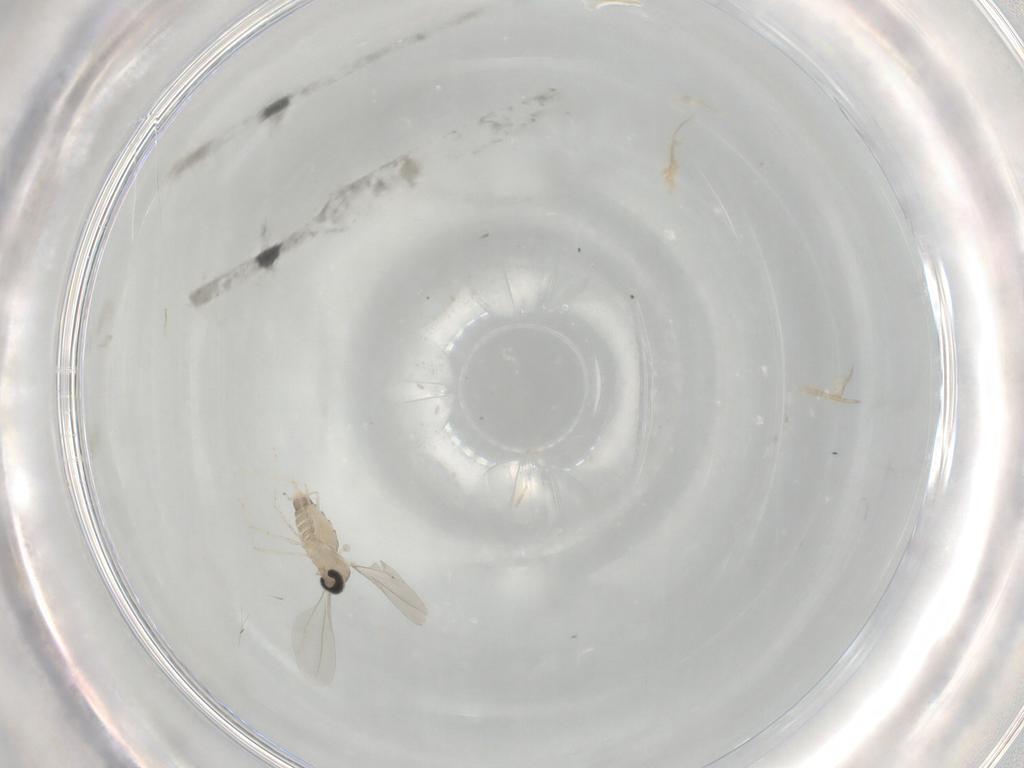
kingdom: Animalia
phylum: Arthropoda
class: Insecta
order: Diptera
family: Cecidomyiidae
